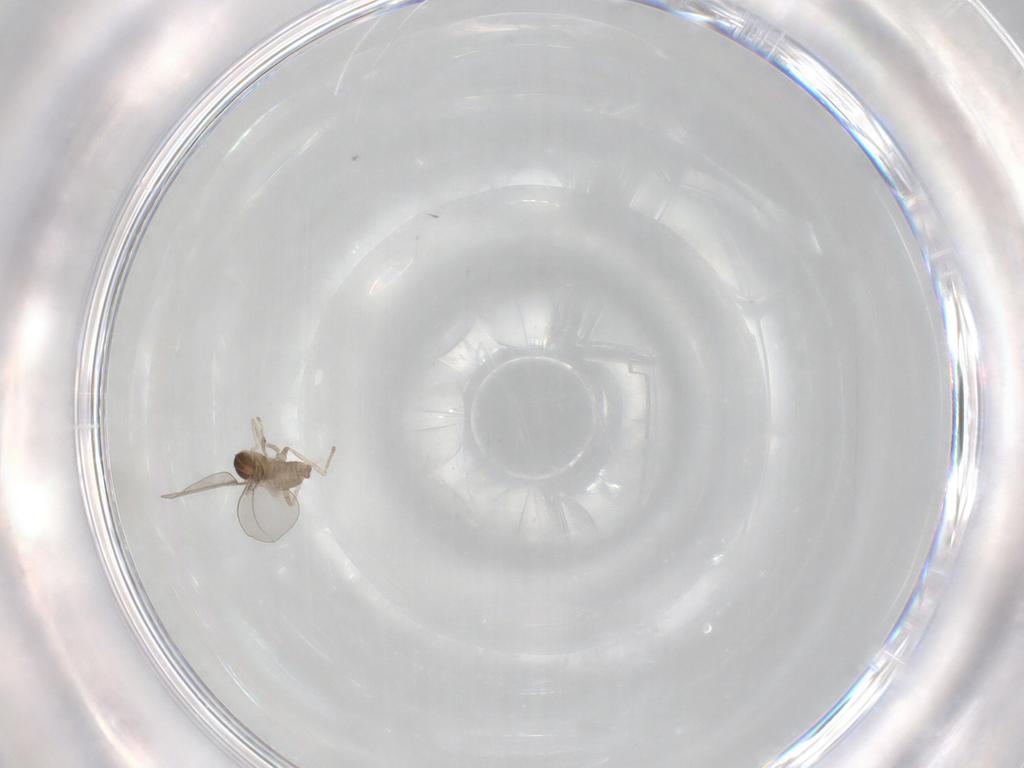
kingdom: Animalia
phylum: Arthropoda
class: Insecta
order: Diptera
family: Cecidomyiidae
